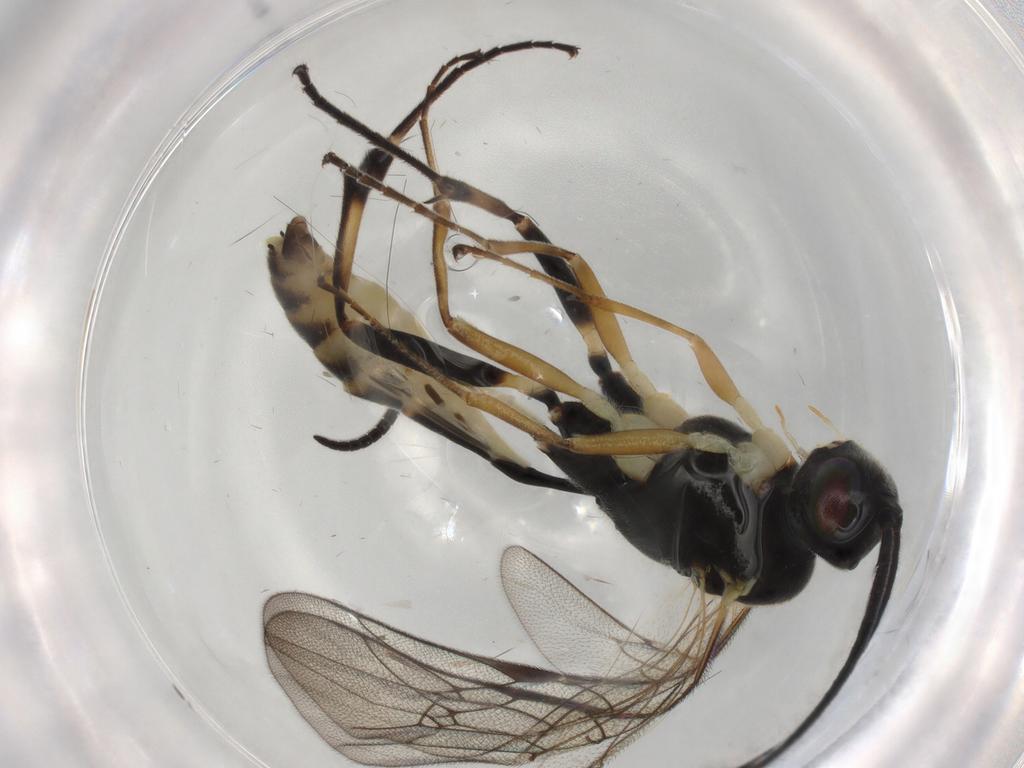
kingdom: Animalia
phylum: Arthropoda
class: Insecta
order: Hymenoptera
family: Ichneumonidae
